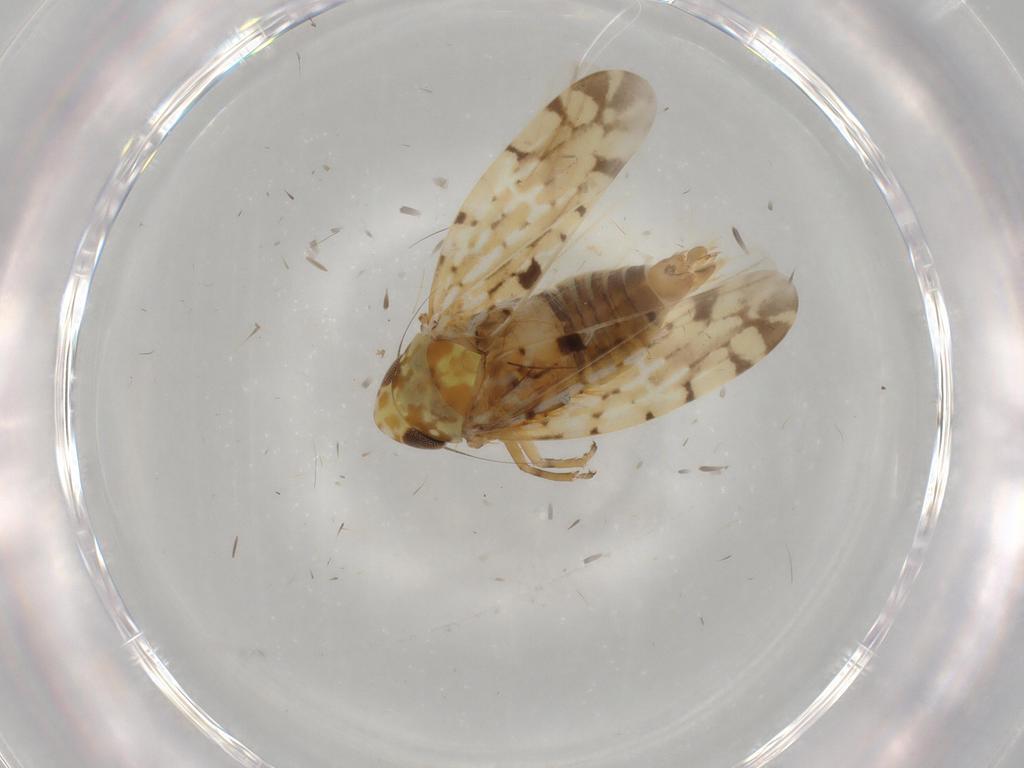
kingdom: Animalia
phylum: Arthropoda
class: Insecta
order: Hemiptera
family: Cicadellidae
